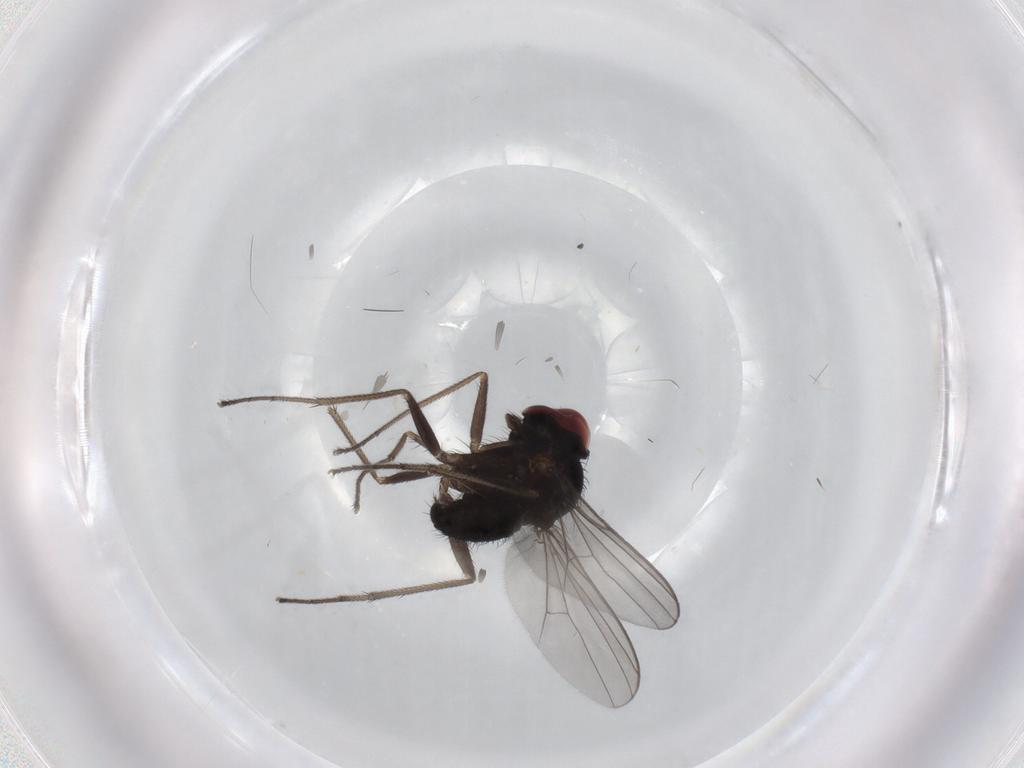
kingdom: Animalia
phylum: Arthropoda
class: Insecta
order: Diptera
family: Dolichopodidae
